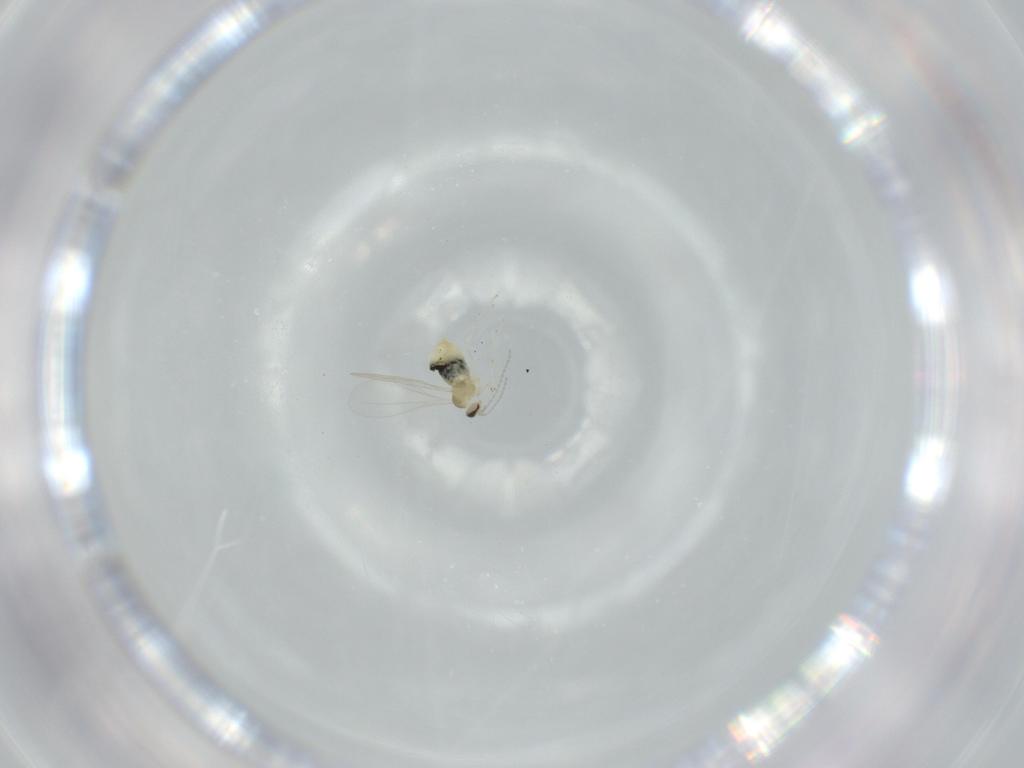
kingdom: Animalia
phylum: Arthropoda
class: Insecta
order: Diptera
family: Cecidomyiidae
